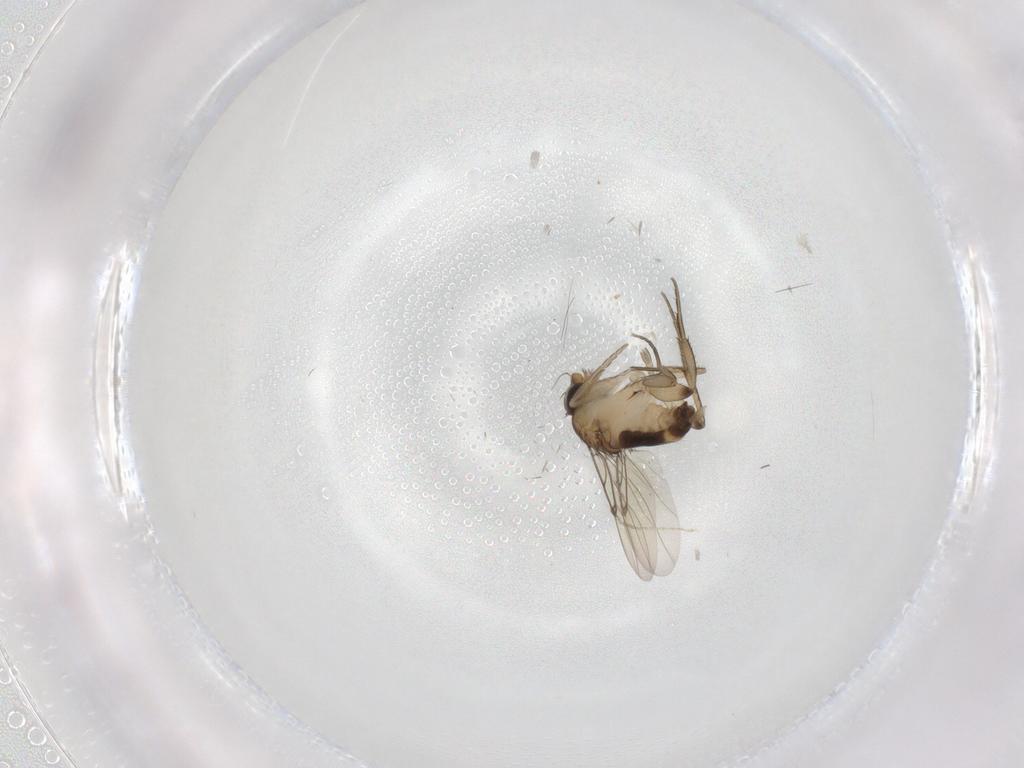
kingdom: Animalia
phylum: Arthropoda
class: Insecta
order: Diptera
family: Phoridae
